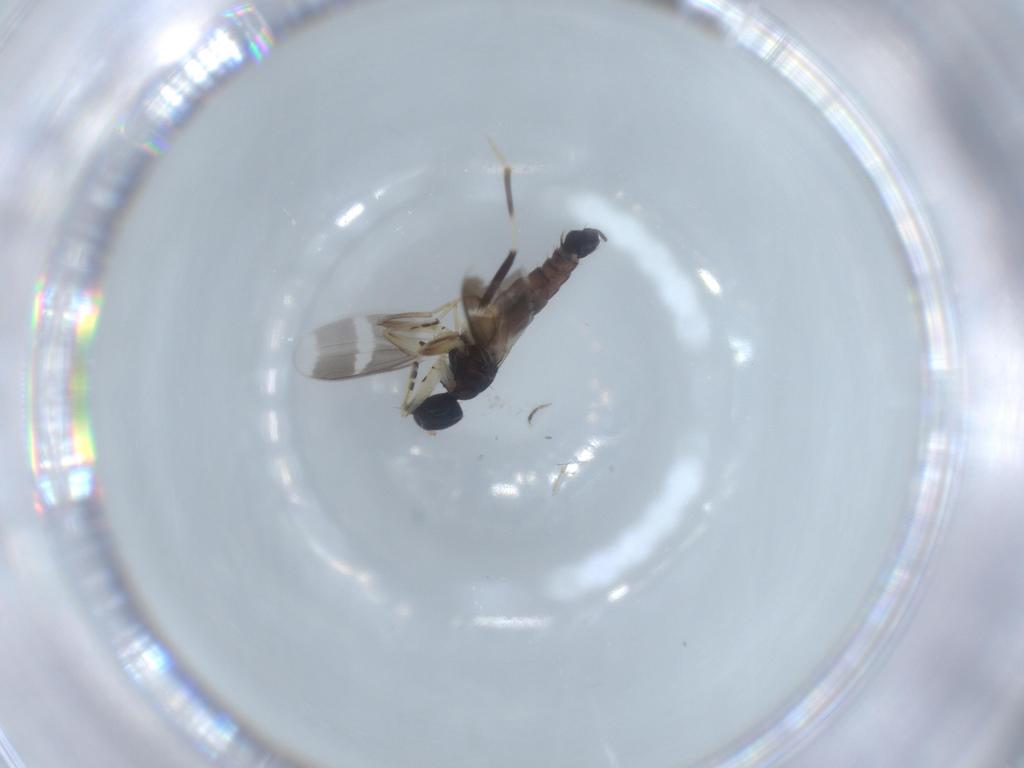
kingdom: Animalia
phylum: Arthropoda
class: Insecta
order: Diptera
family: Hybotidae
